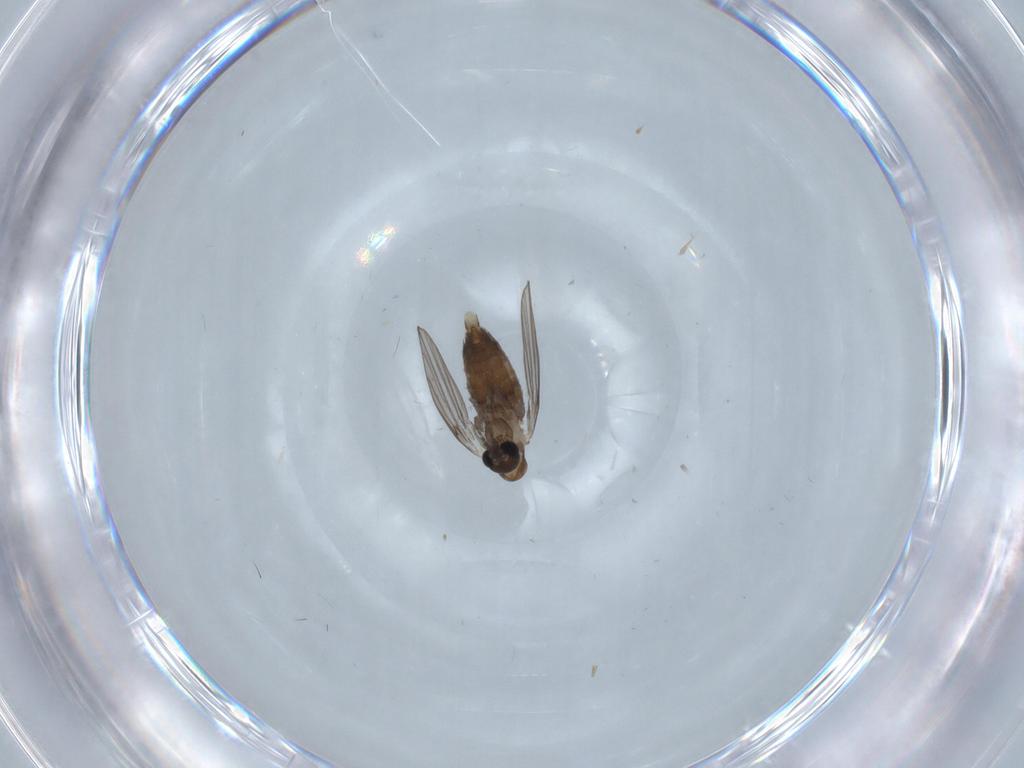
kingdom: Animalia
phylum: Arthropoda
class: Insecta
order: Diptera
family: Psychodidae
